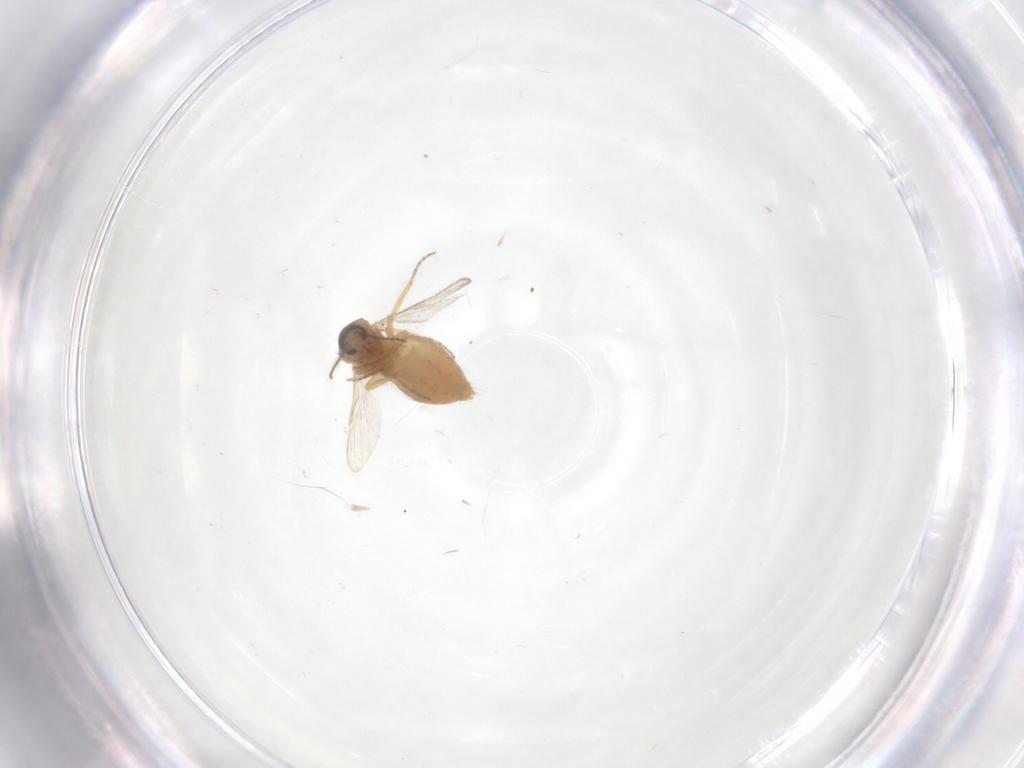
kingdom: Animalia
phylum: Arthropoda
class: Insecta
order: Diptera
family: Ceratopogonidae
